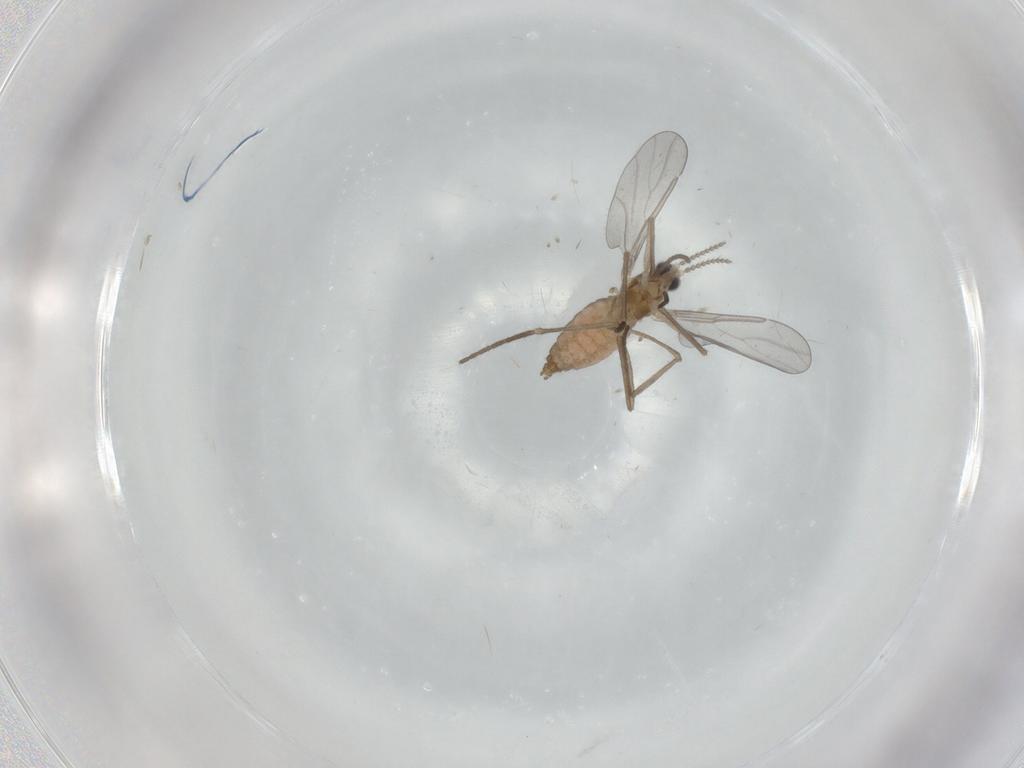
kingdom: Animalia
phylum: Arthropoda
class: Insecta
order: Diptera
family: Cecidomyiidae
